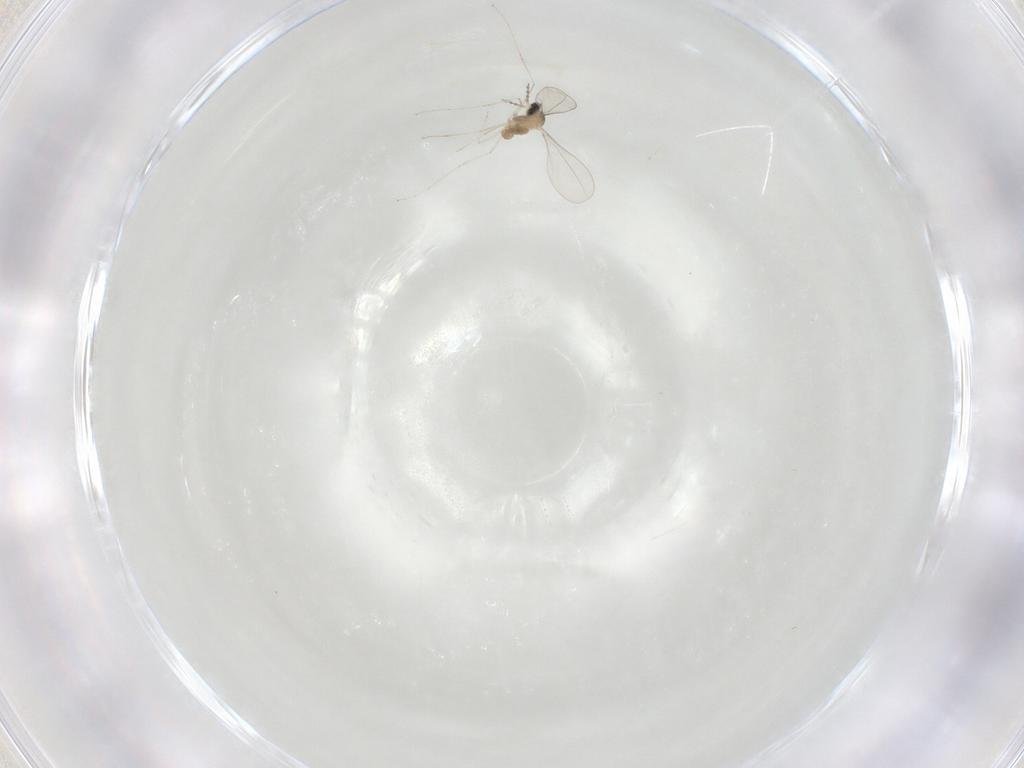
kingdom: Animalia
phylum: Arthropoda
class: Insecta
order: Diptera
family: Cecidomyiidae
